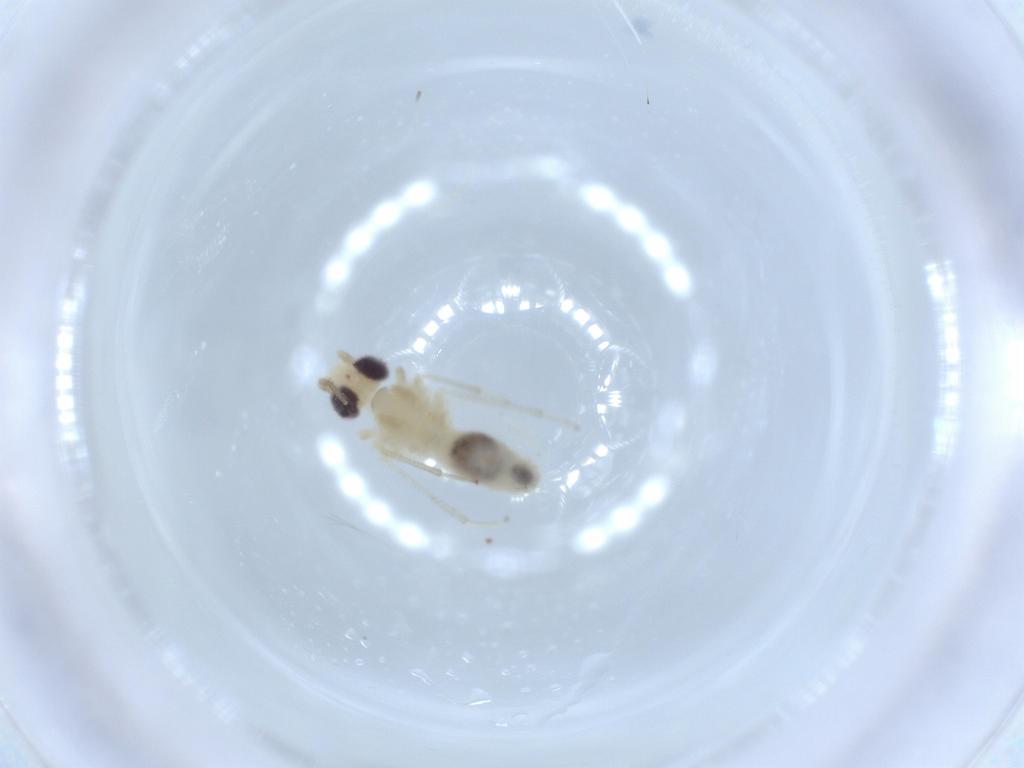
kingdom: Animalia
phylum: Arthropoda
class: Insecta
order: Psocodea
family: Caeciliusidae
